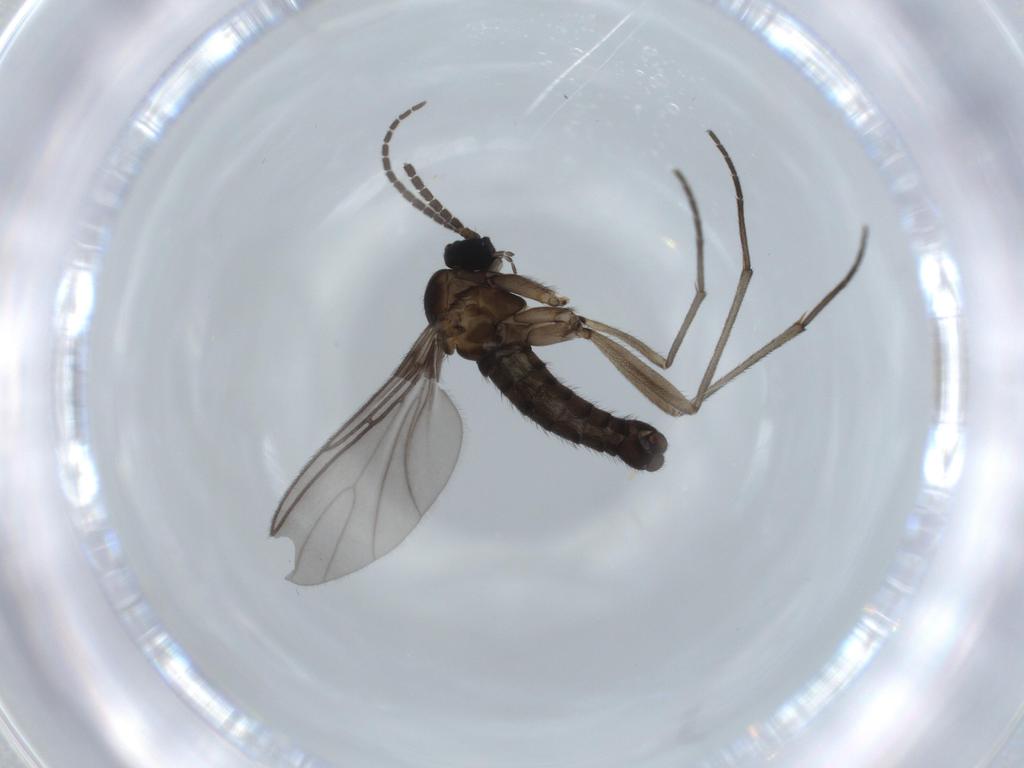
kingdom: Animalia
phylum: Arthropoda
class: Insecta
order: Diptera
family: Sciaridae
